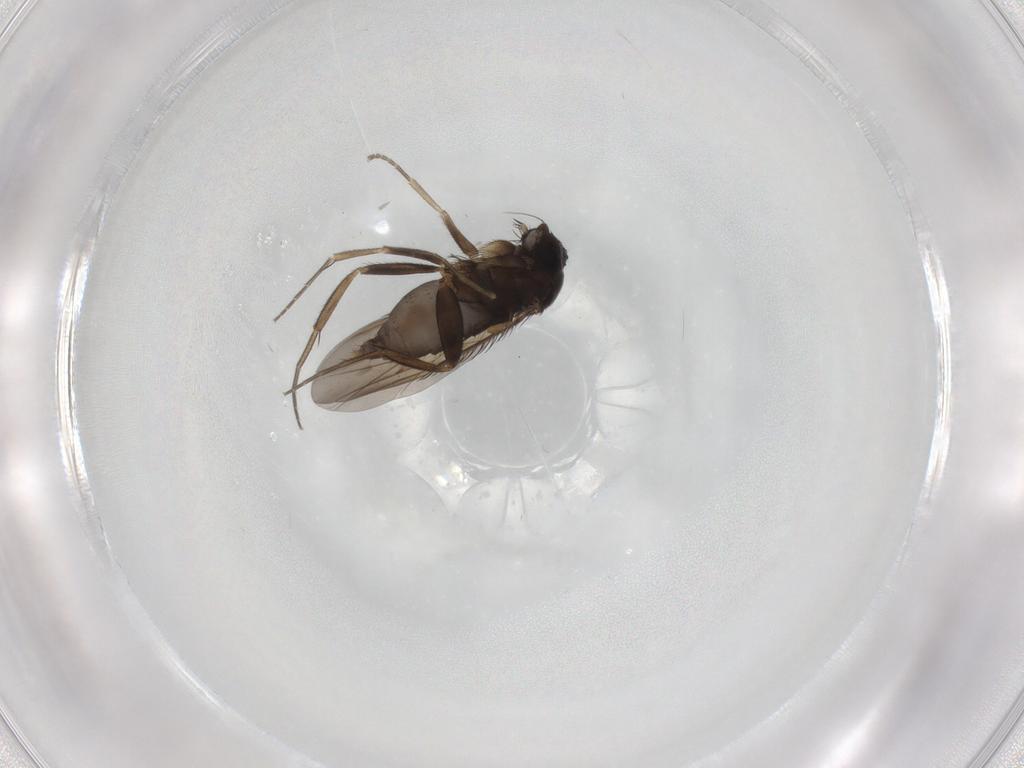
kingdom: Animalia
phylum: Arthropoda
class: Insecta
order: Diptera
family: Phoridae
